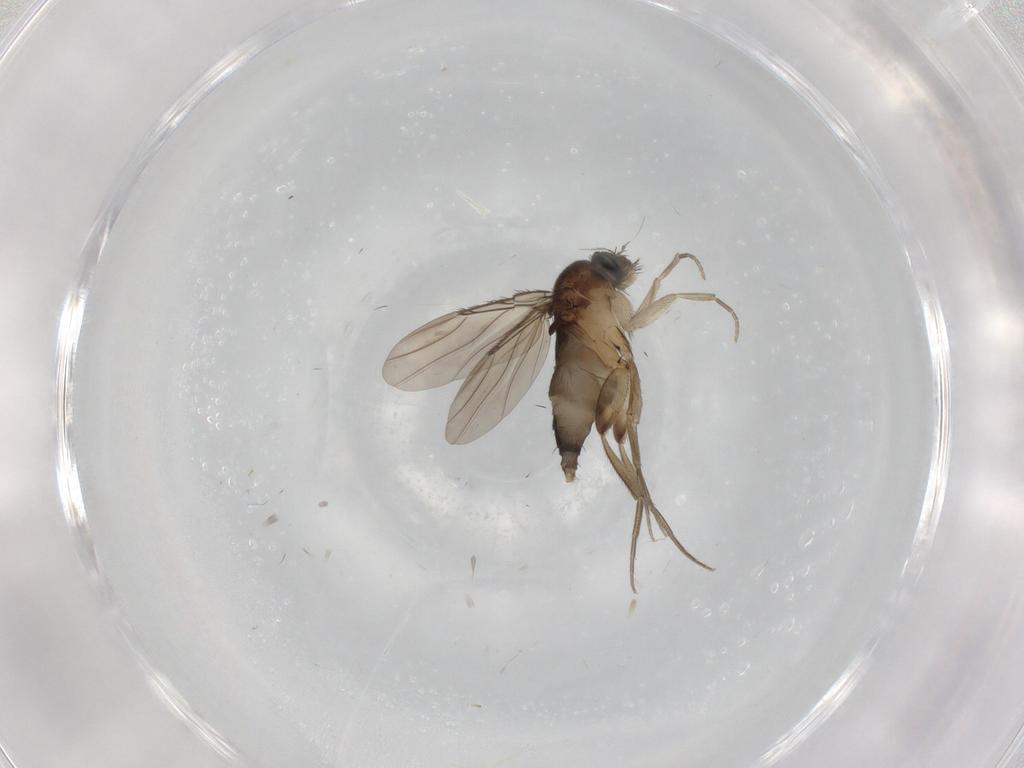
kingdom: Animalia
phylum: Arthropoda
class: Insecta
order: Diptera
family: Phoridae
